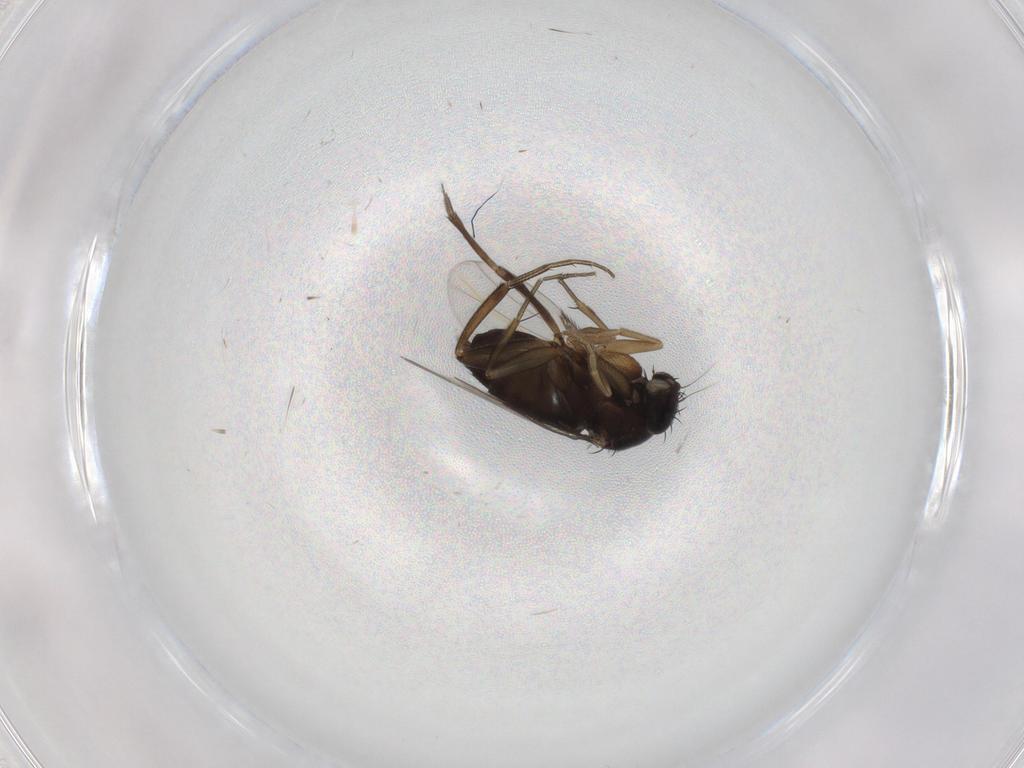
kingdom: Animalia
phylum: Arthropoda
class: Insecta
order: Diptera
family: Phoridae
